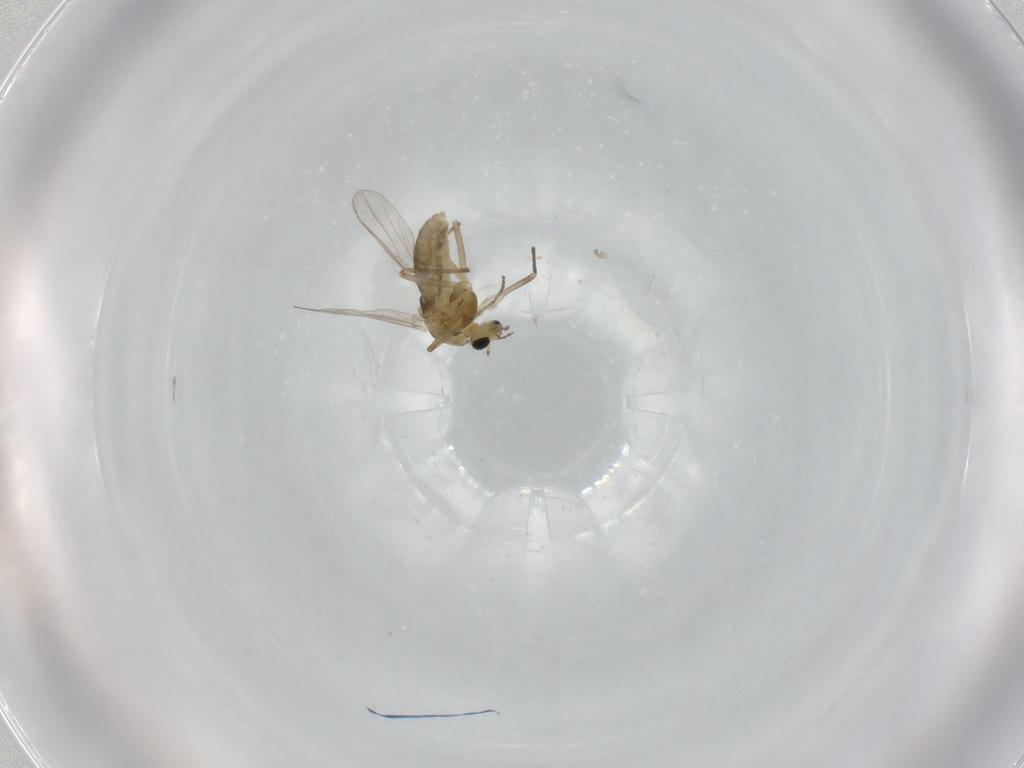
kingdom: Animalia
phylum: Arthropoda
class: Insecta
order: Diptera
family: Chironomidae
